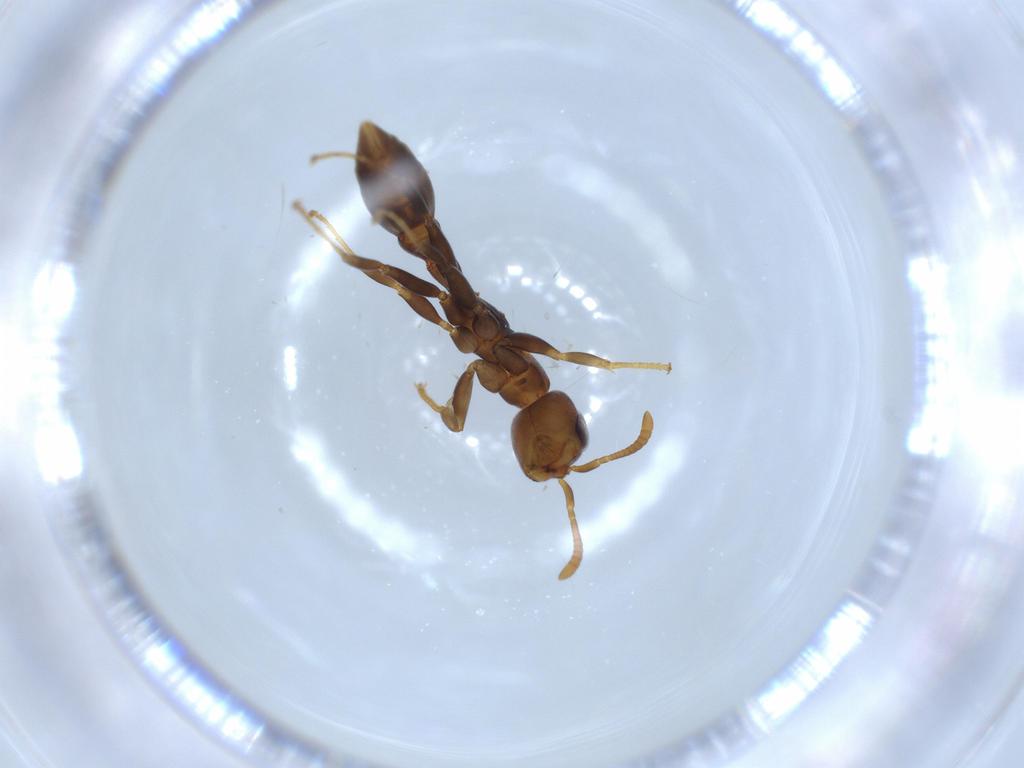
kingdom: Animalia
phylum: Arthropoda
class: Insecta
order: Hymenoptera
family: Formicidae
